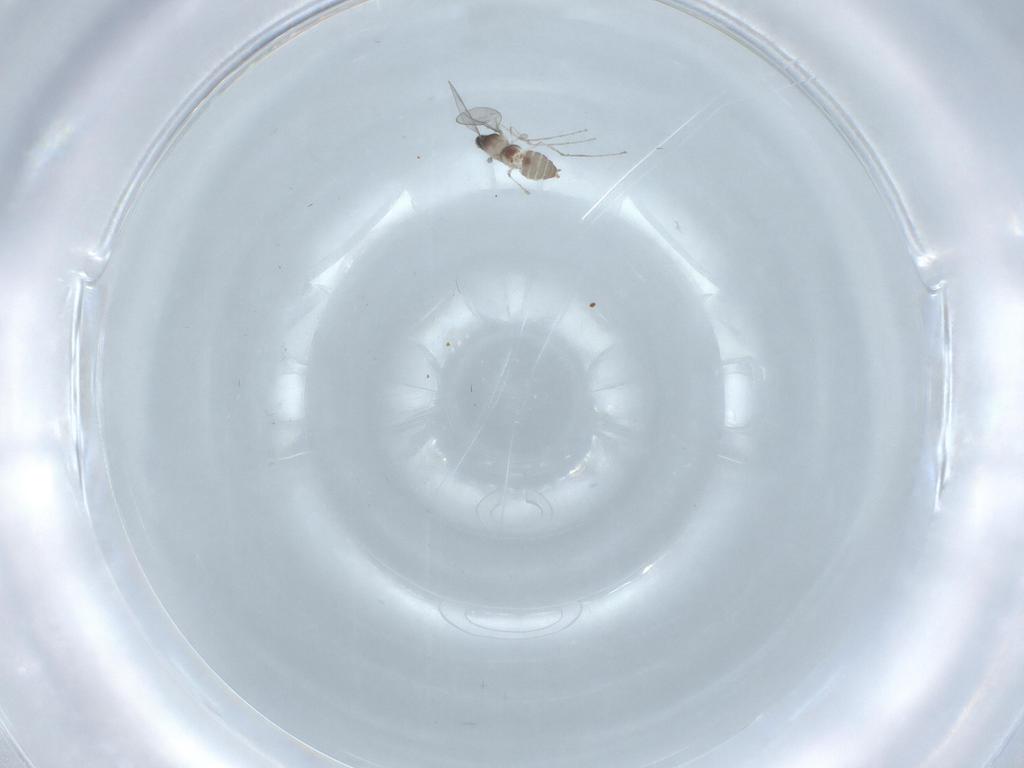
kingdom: Animalia
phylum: Arthropoda
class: Insecta
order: Diptera
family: Cecidomyiidae
